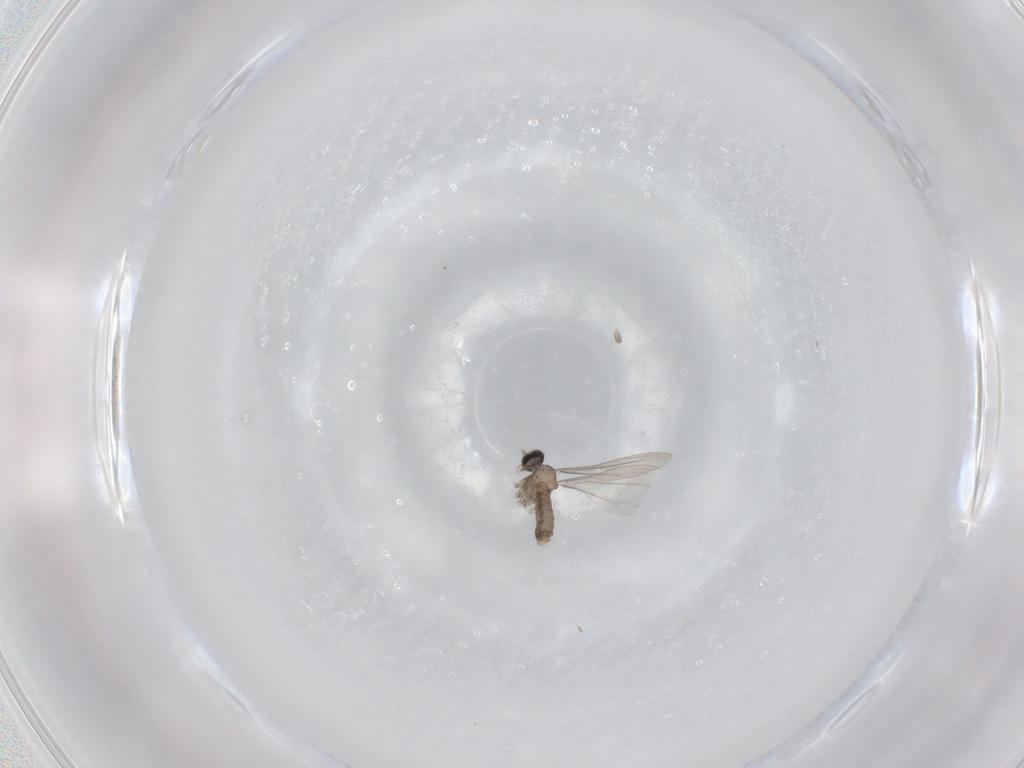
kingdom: Animalia
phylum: Arthropoda
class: Insecta
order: Diptera
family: Cecidomyiidae
